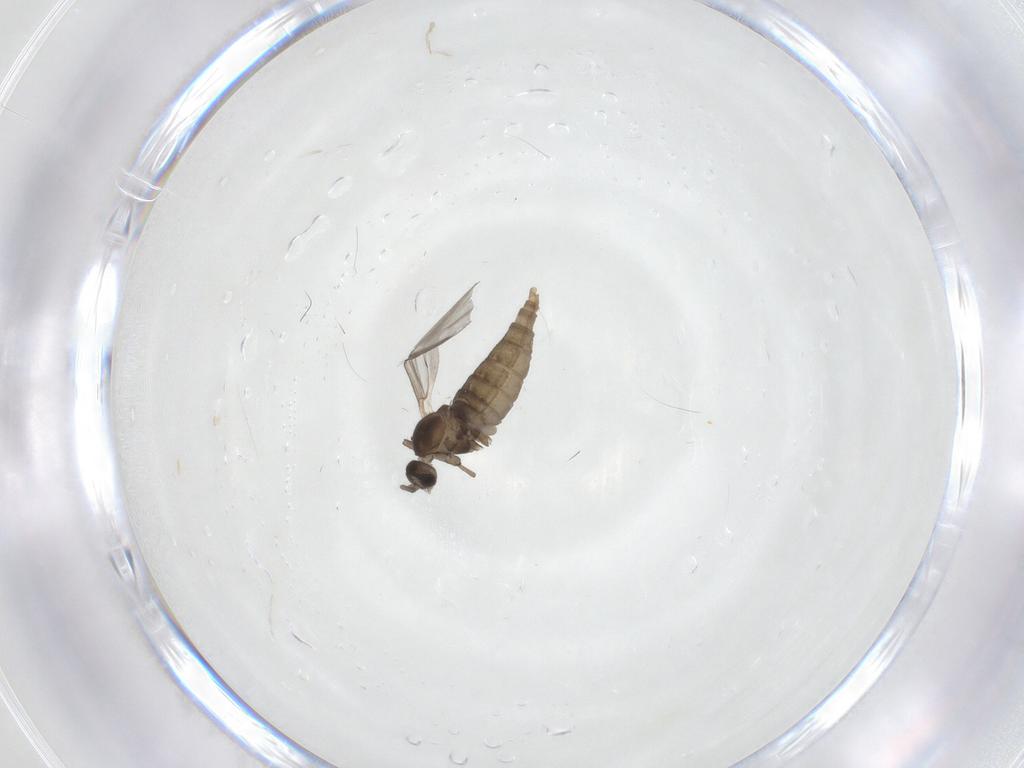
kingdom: Animalia
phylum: Arthropoda
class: Insecta
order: Diptera
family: Cecidomyiidae
